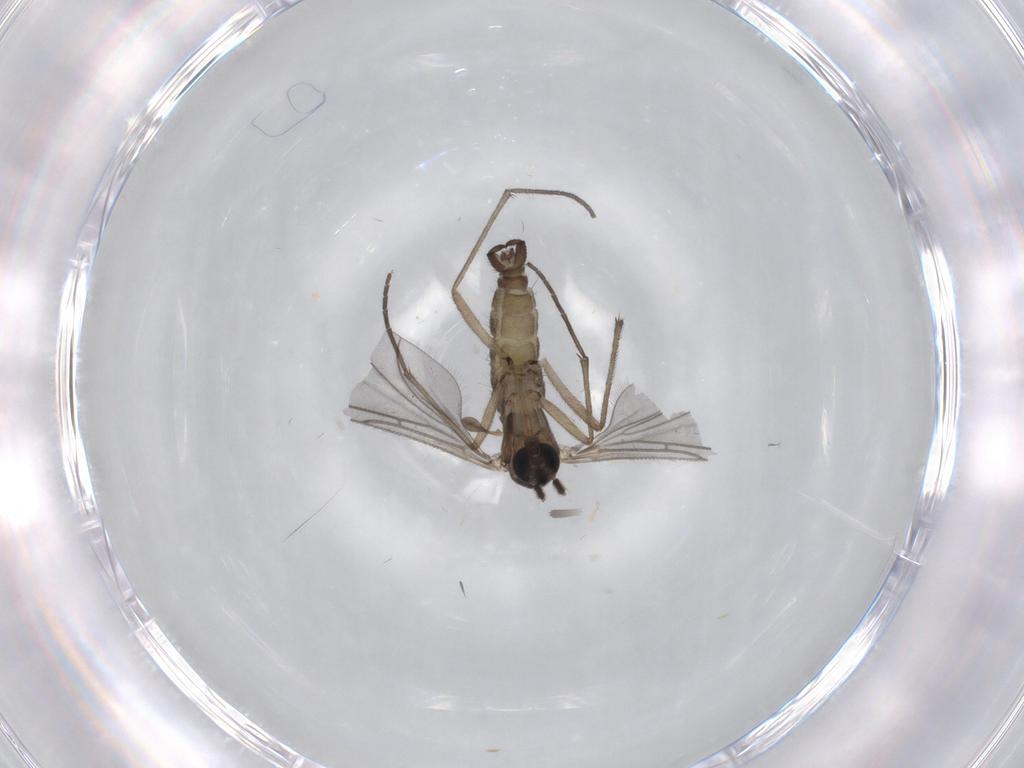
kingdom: Animalia
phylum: Arthropoda
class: Insecta
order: Diptera
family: Sciaridae
